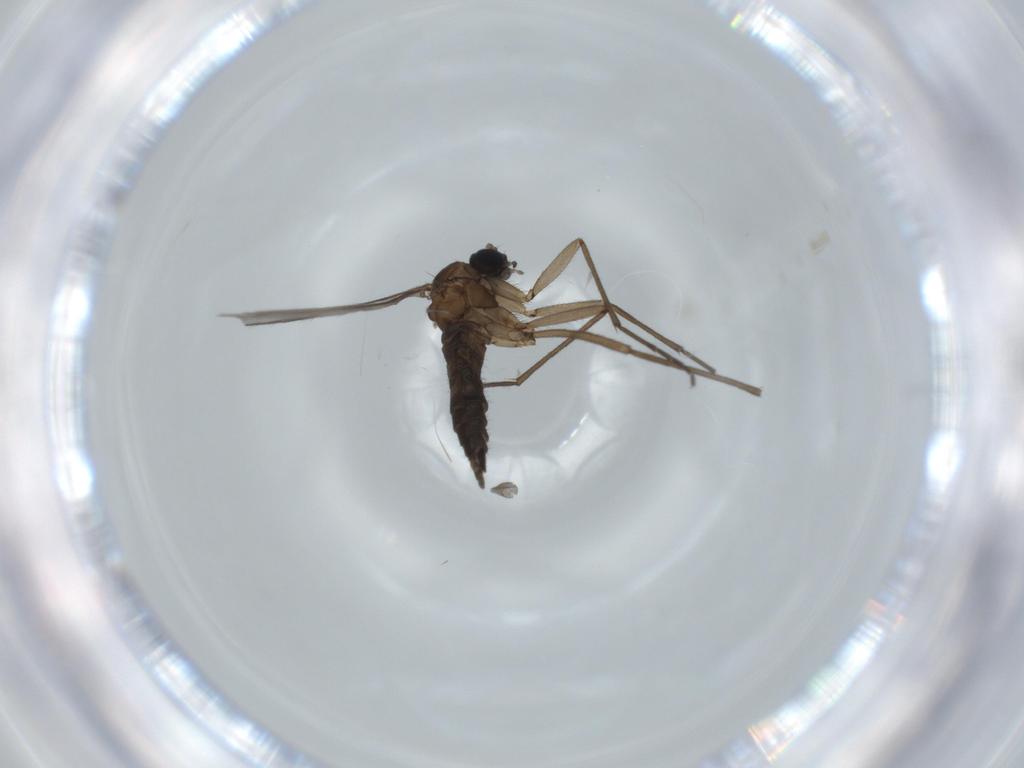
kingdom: Animalia
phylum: Arthropoda
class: Insecta
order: Diptera
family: Sciaridae
